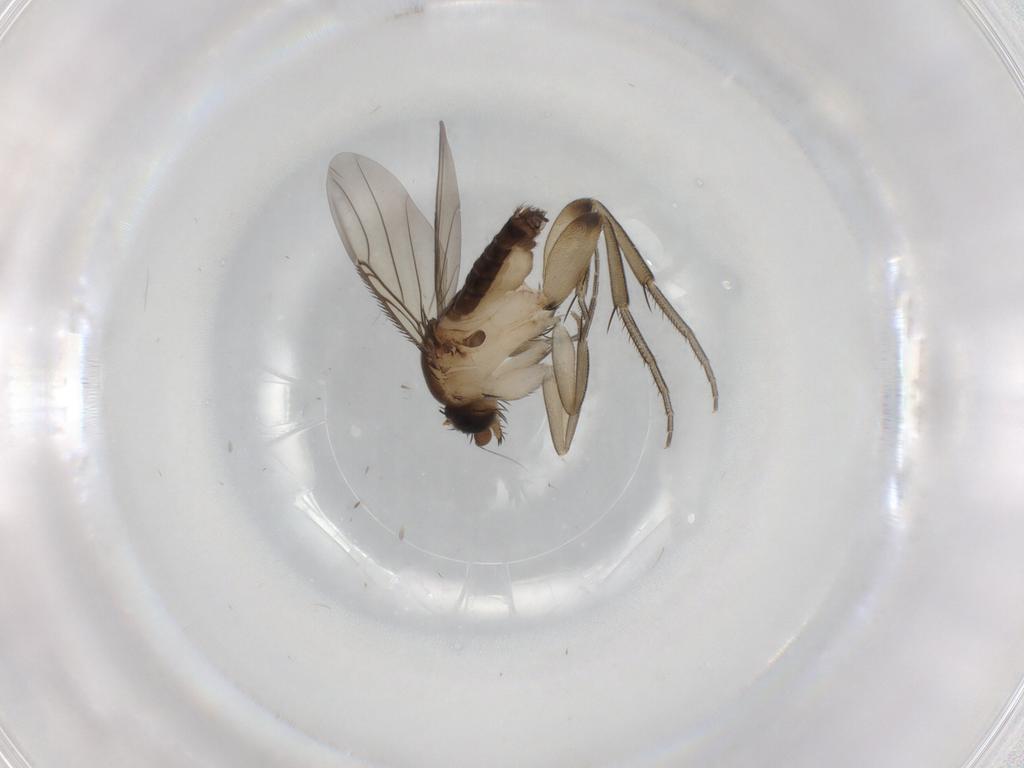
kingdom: Animalia
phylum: Arthropoda
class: Insecta
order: Diptera
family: Phoridae
